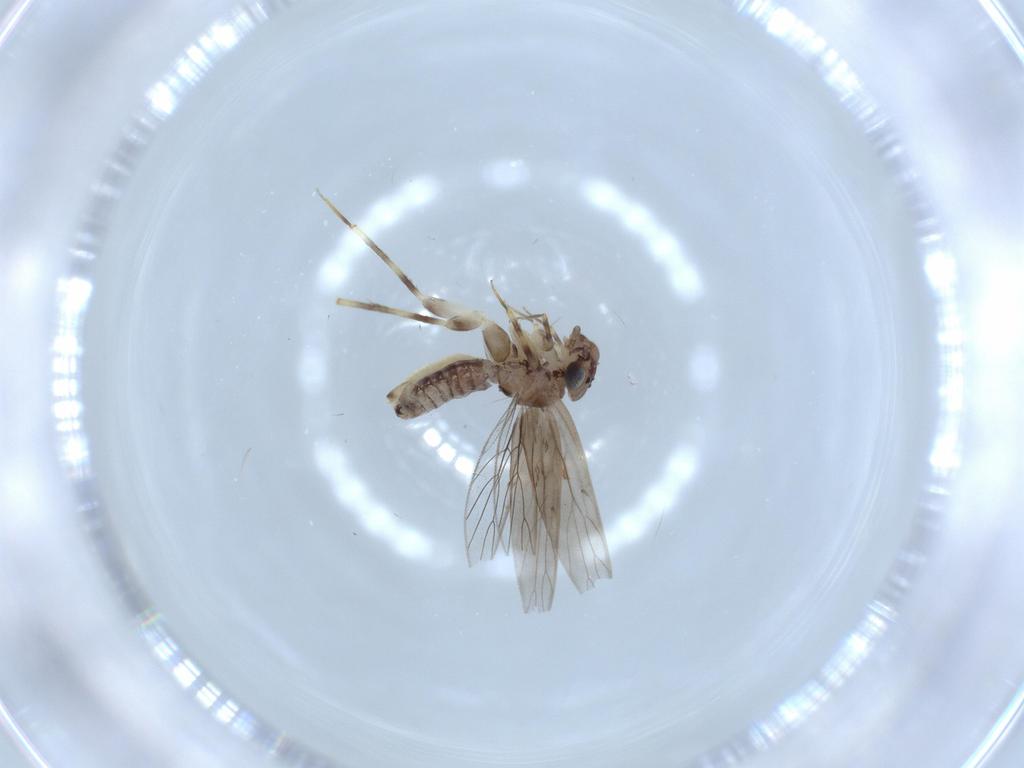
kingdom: Animalia
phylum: Arthropoda
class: Insecta
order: Psocodea
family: Lepidopsocidae
